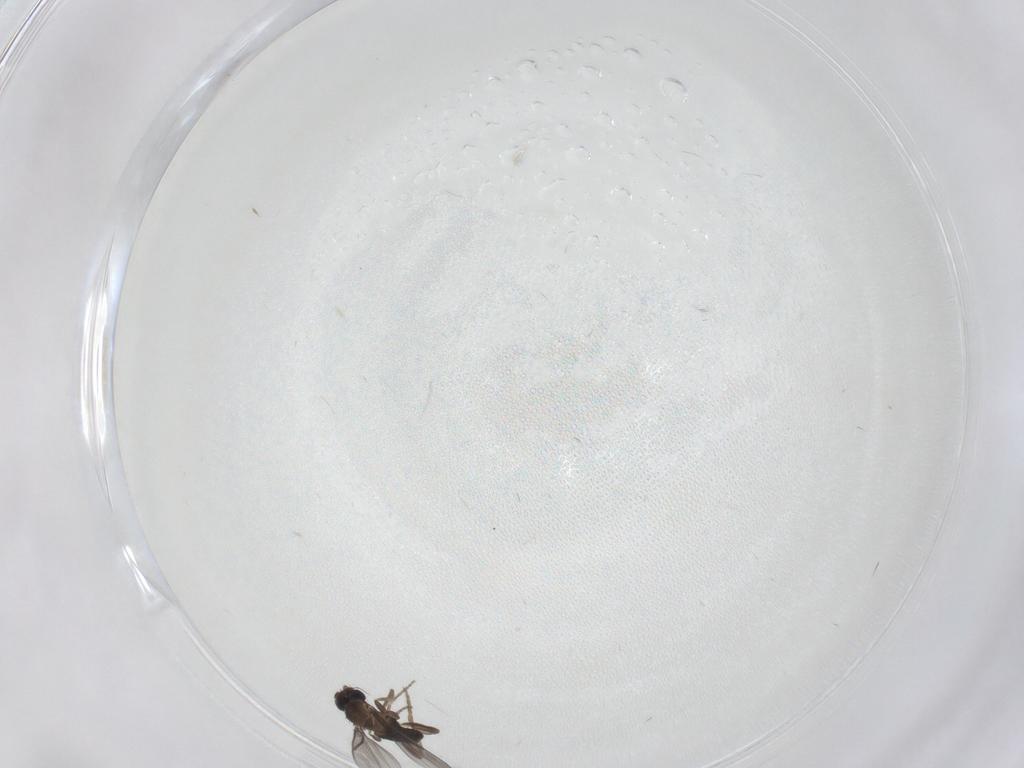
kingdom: Animalia
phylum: Arthropoda
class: Insecta
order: Diptera
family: Ceratopogonidae
